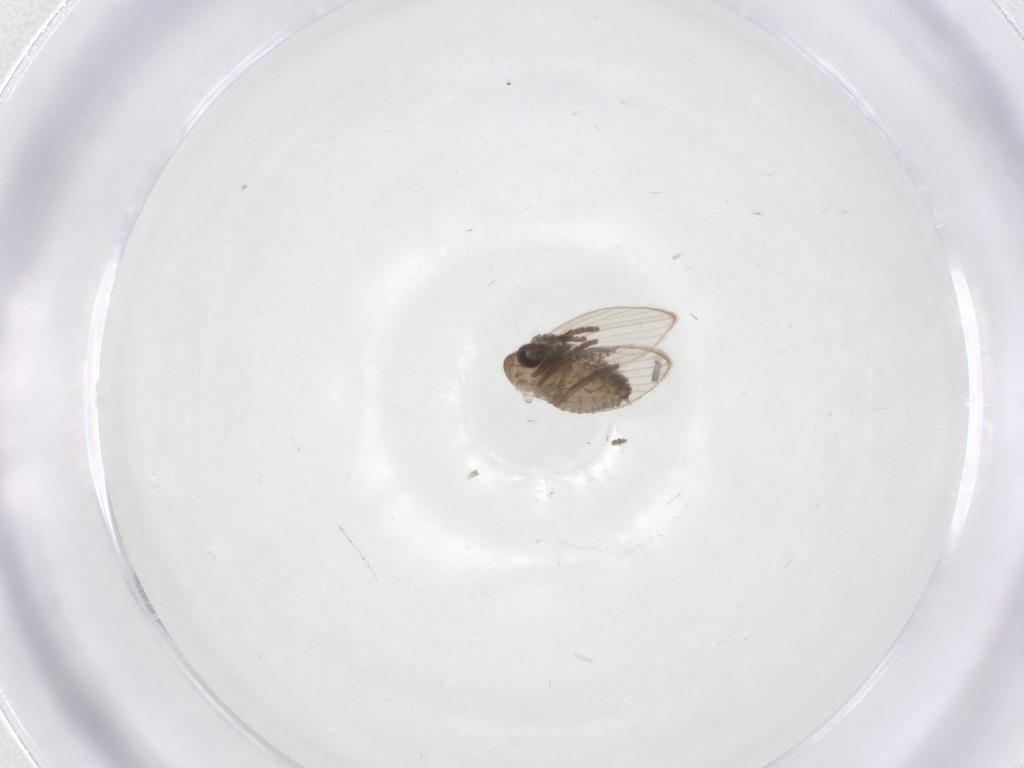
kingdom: Animalia
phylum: Arthropoda
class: Insecta
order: Diptera
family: Psychodidae
